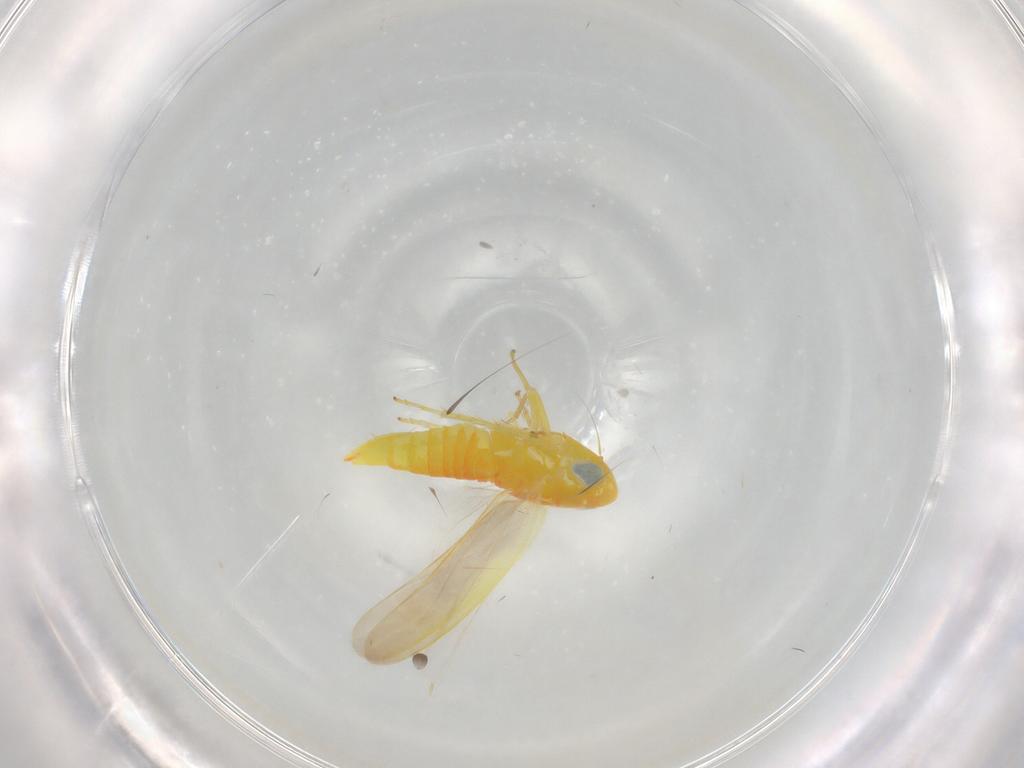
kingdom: Animalia
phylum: Arthropoda
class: Insecta
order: Hemiptera
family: Cicadellidae
